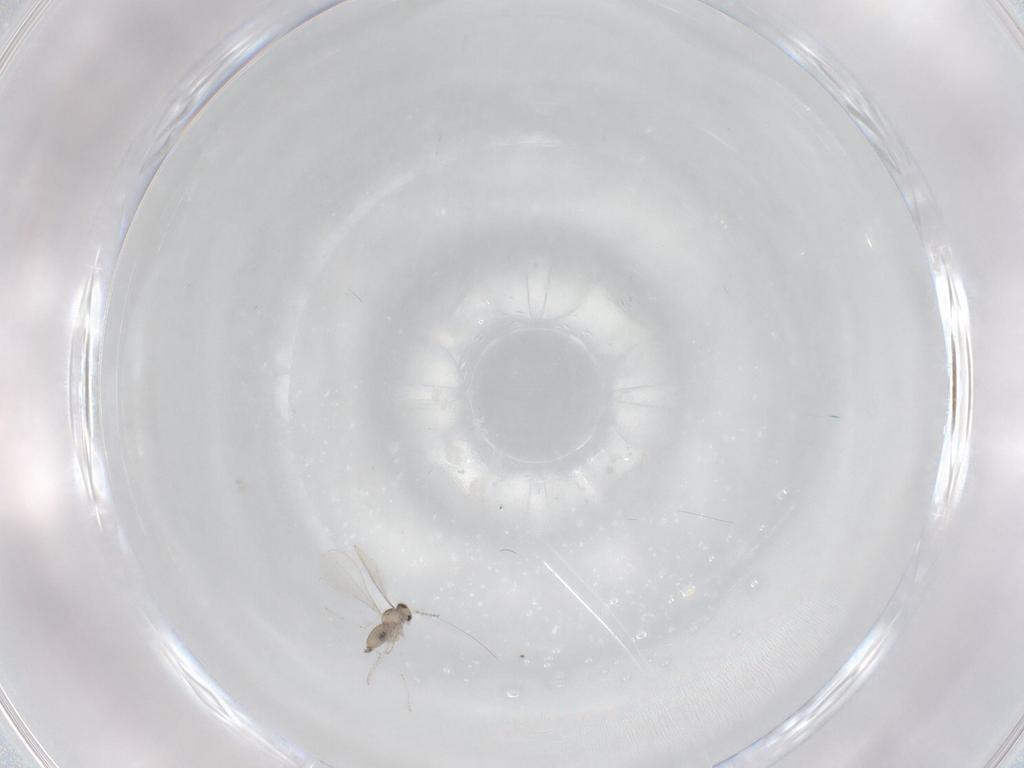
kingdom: Animalia
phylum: Arthropoda
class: Insecta
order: Diptera
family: Cecidomyiidae
